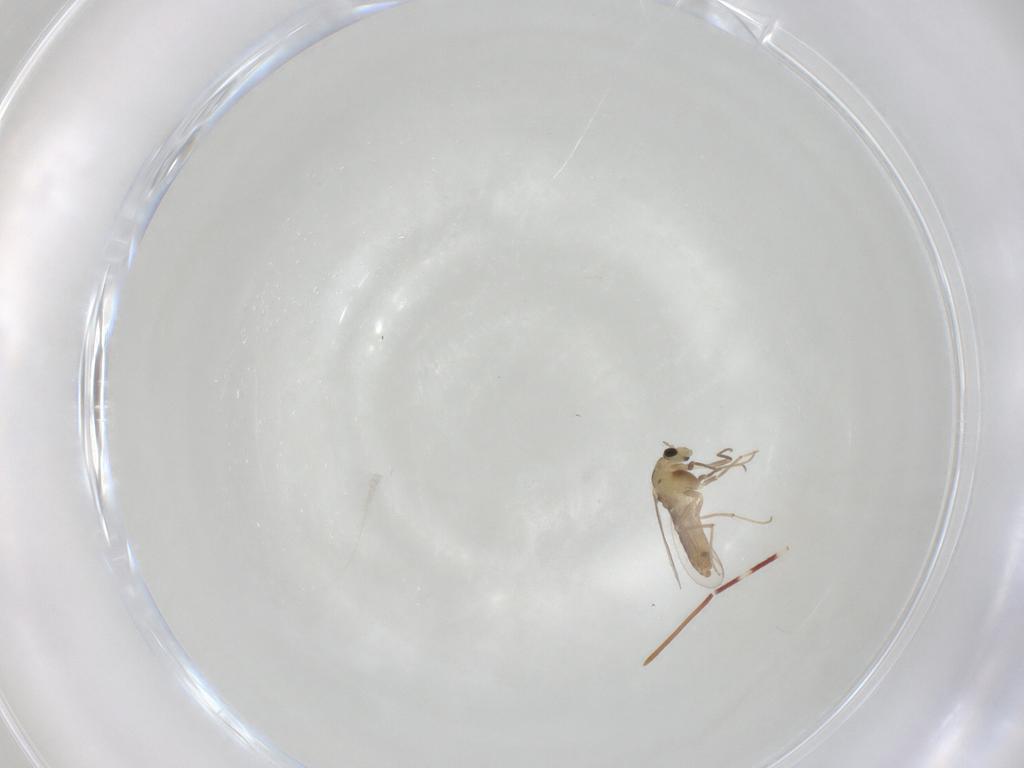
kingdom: Animalia
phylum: Arthropoda
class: Insecta
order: Diptera
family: Chironomidae
